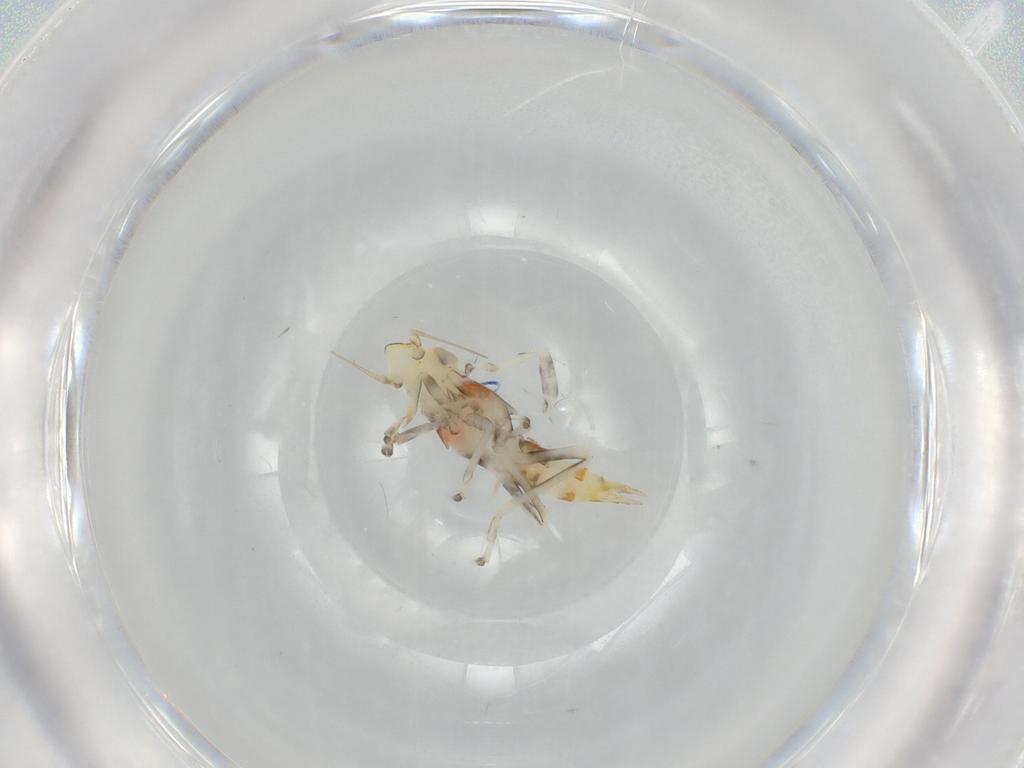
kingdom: Animalia
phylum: Arthropoda
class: Insecta
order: Hemiptera
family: Cicadellidae
